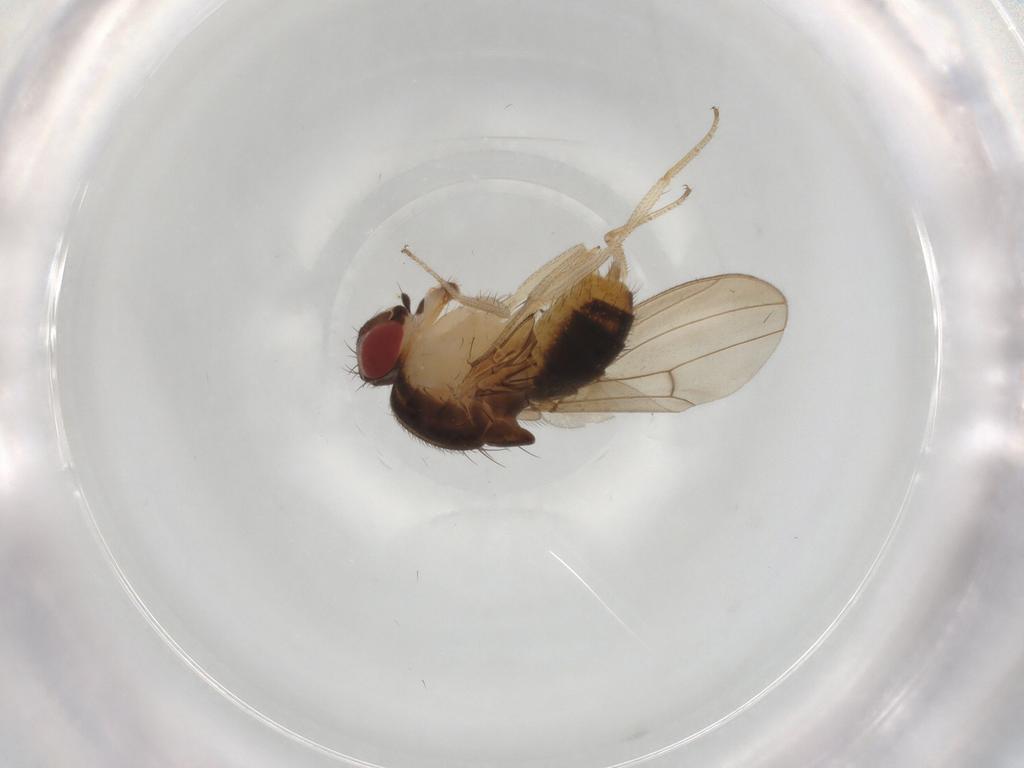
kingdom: Animalia
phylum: Arthropoda
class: Insecta
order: Diptera
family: Drosophilidae
